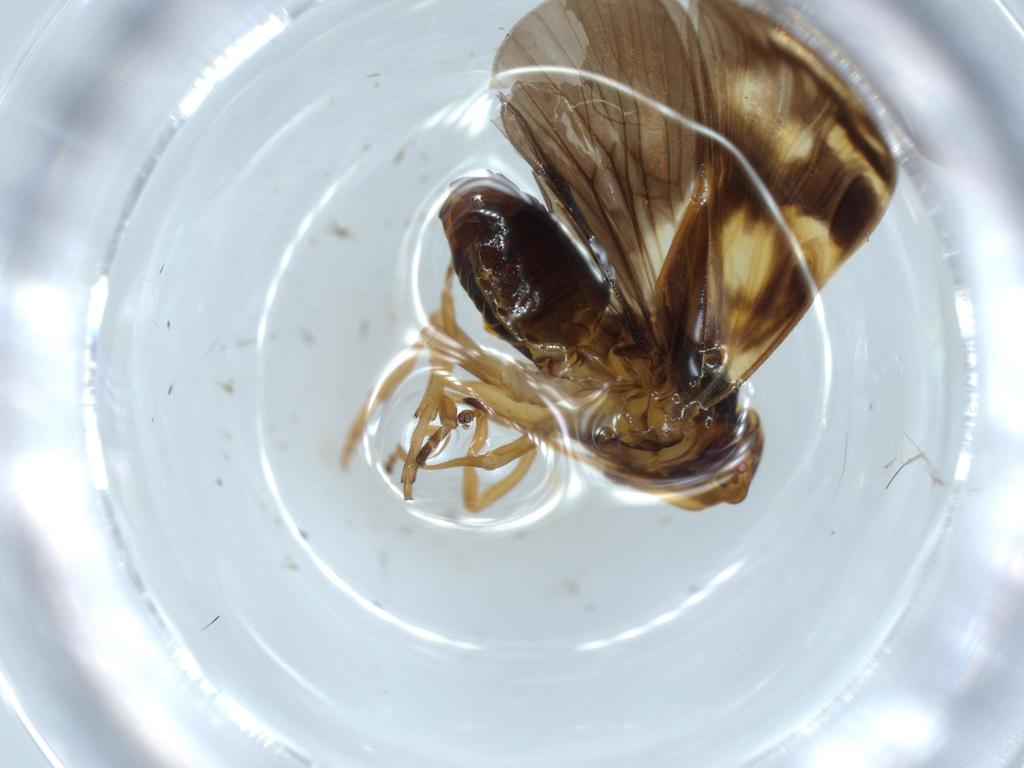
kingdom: Animalia
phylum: Arthropoda
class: Insecta
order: Hemiptera
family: Cixiidae
